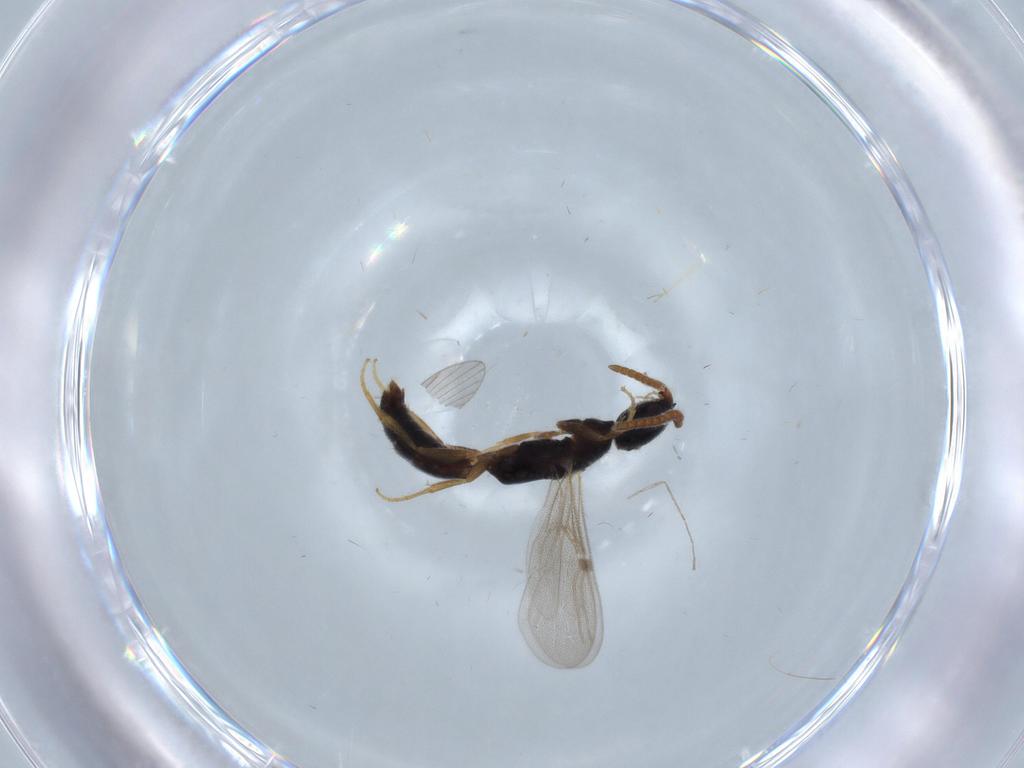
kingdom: Animalia
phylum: Arthropoda
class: Insecta
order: Hymenoptera
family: Bethylidae
